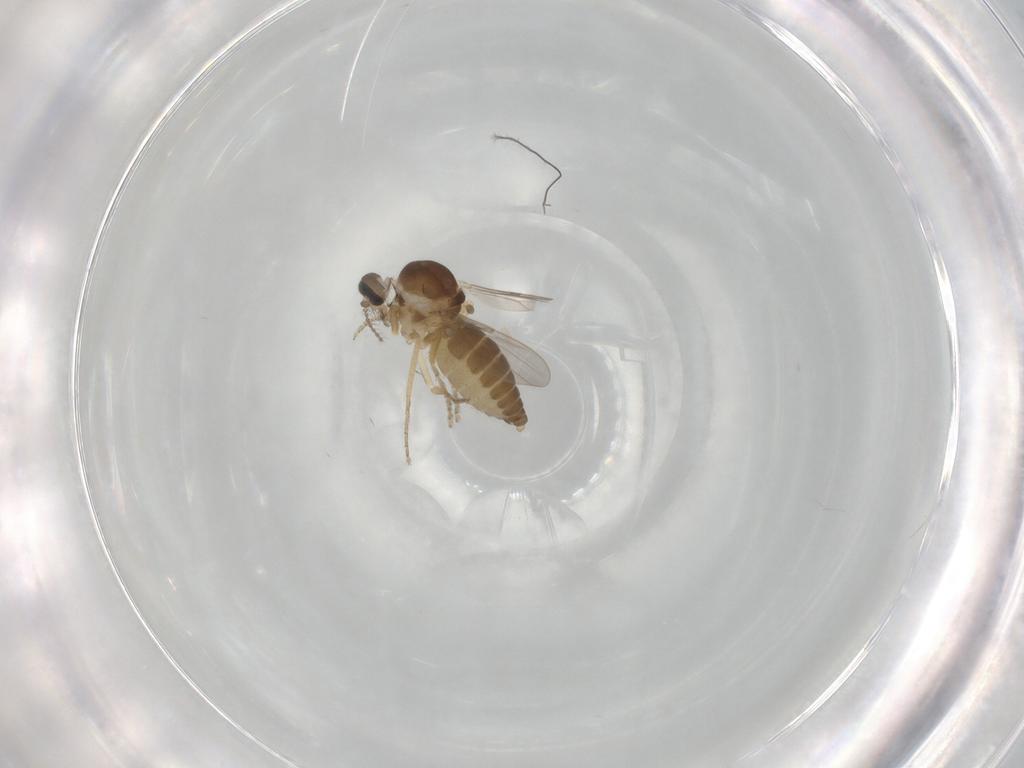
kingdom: Animalia
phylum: Arthropoda
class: Insecta
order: Diptera
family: Ceratopogonidae
